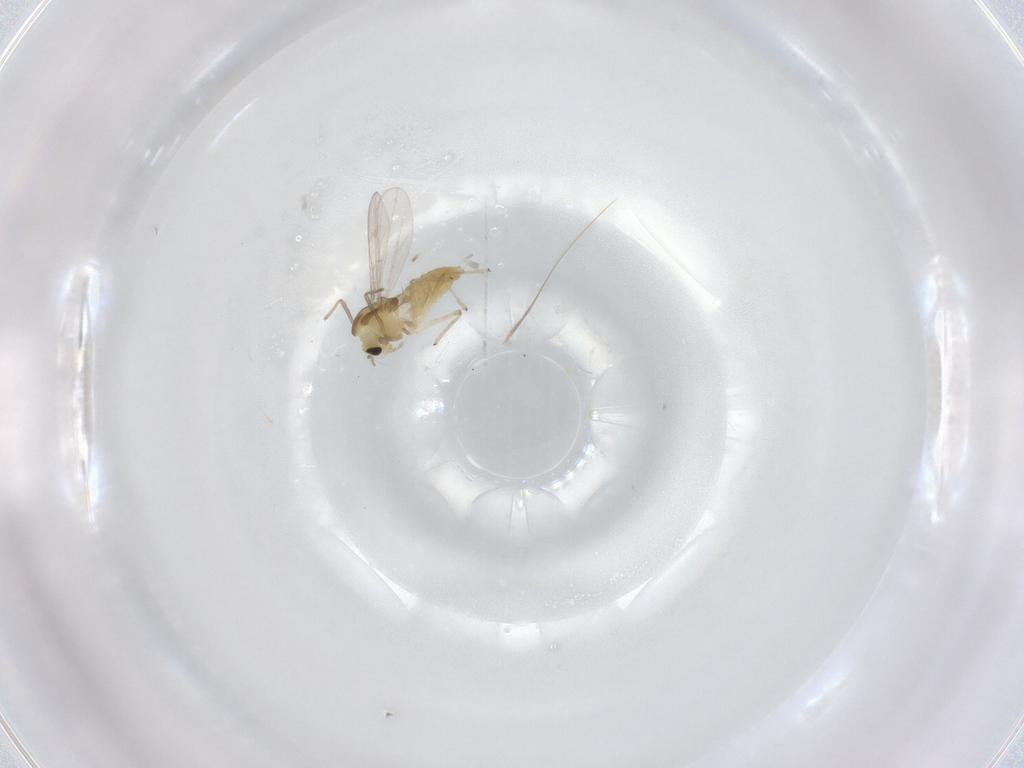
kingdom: Animalia
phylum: Arthropoda
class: Insecta
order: Diptera
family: Chironomidae
